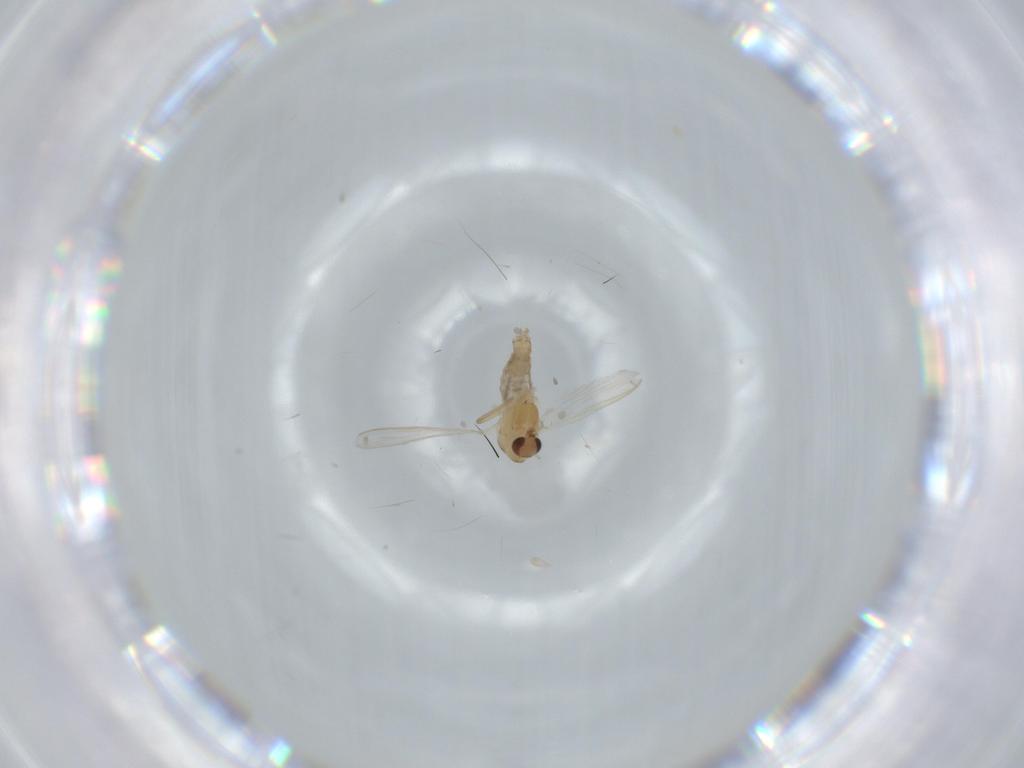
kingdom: Animalia
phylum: Arthropoda
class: Insecta
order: Diptera
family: Chironomidae
